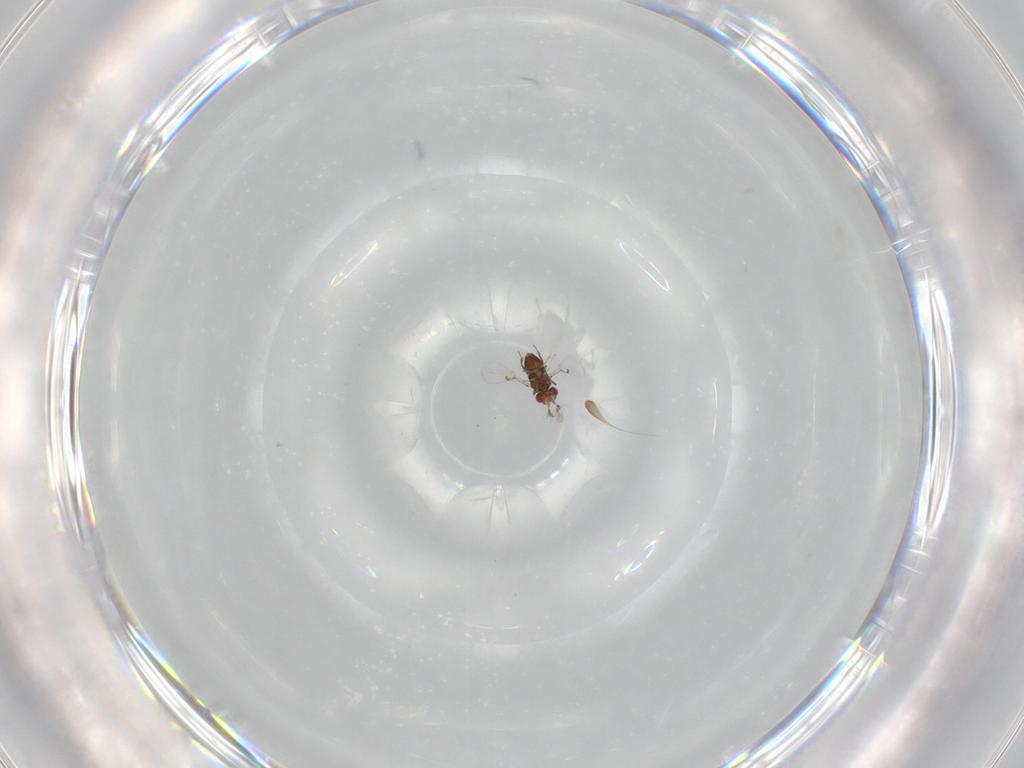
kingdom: Animalia
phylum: Arthropoda
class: Insecta
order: Hymenoptera
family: Trichogrammatidae
